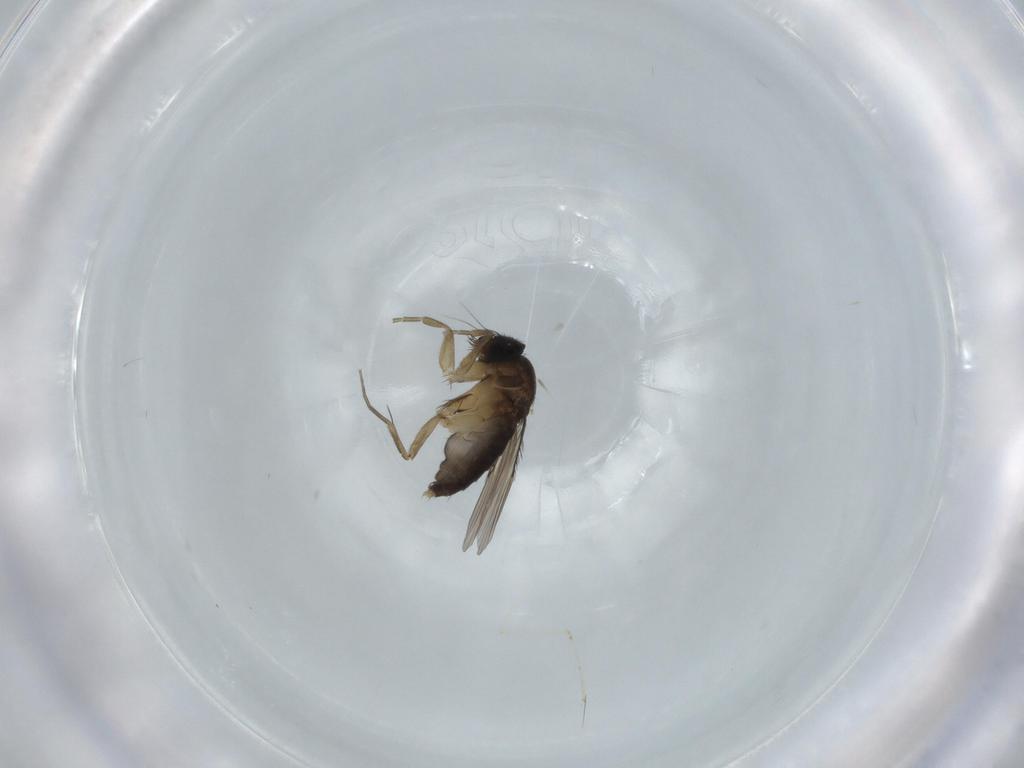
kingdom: Animalia
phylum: Arthropoda
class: Insecta
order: Diptera
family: Phoridae
